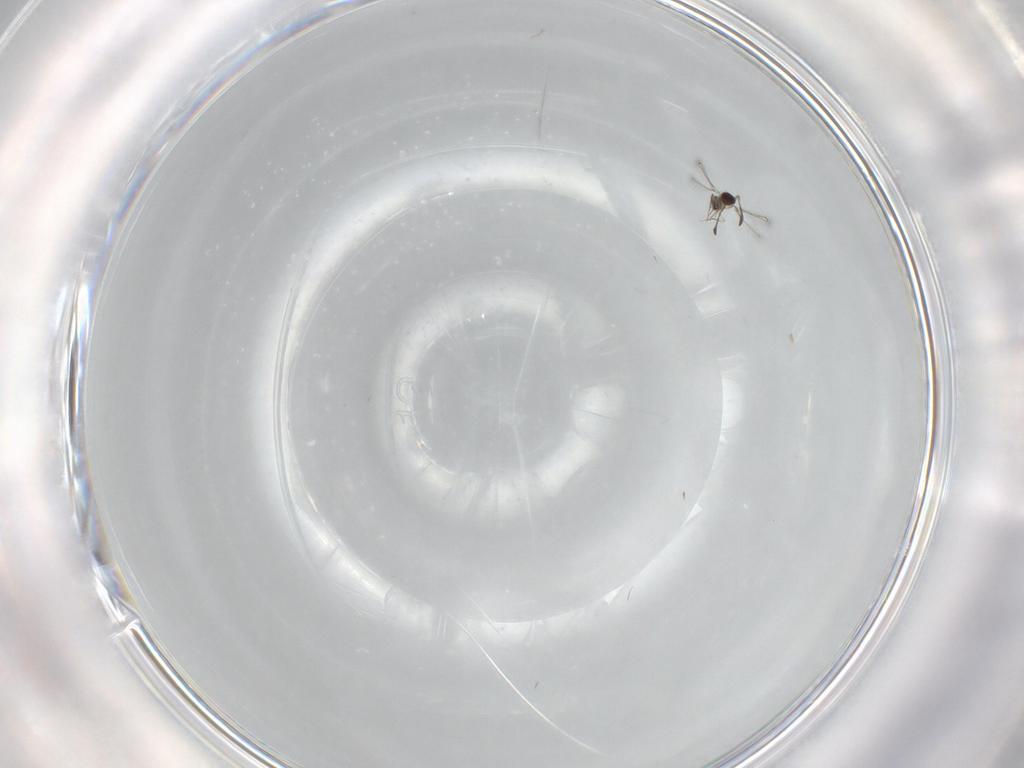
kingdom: Animalia
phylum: Arthropoda
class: Insecta
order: Hymenoptera
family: Mymaridae
